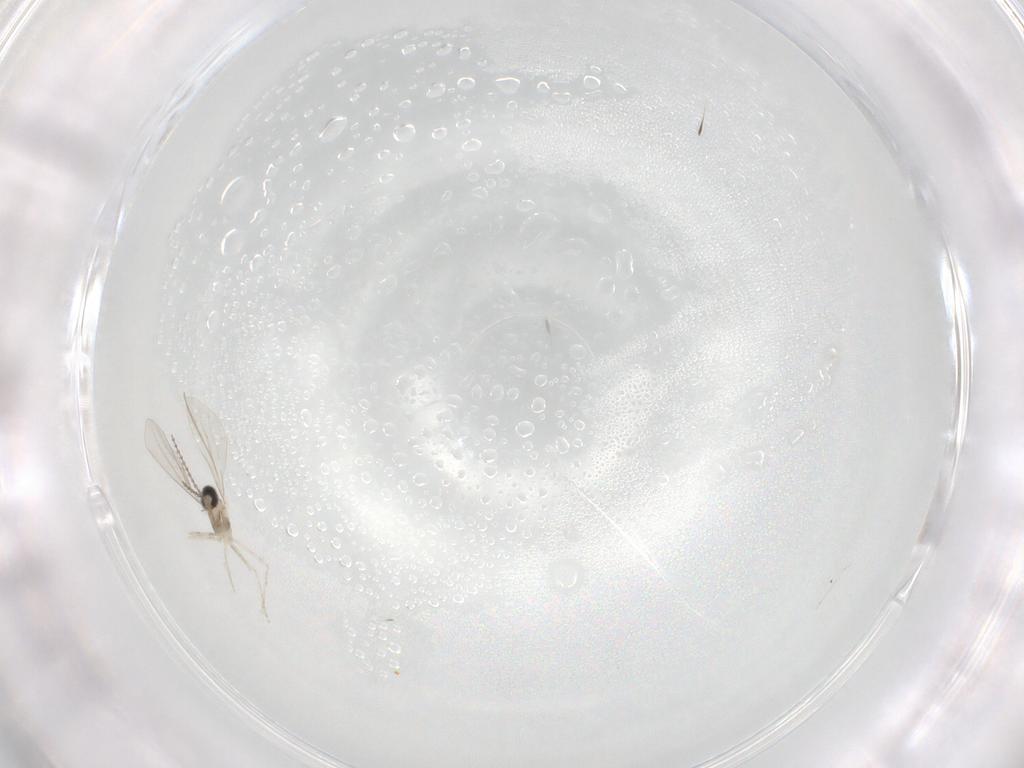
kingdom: Animalia
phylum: Arthropoda
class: Insecta
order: Diptera
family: Cecidomyiidae
